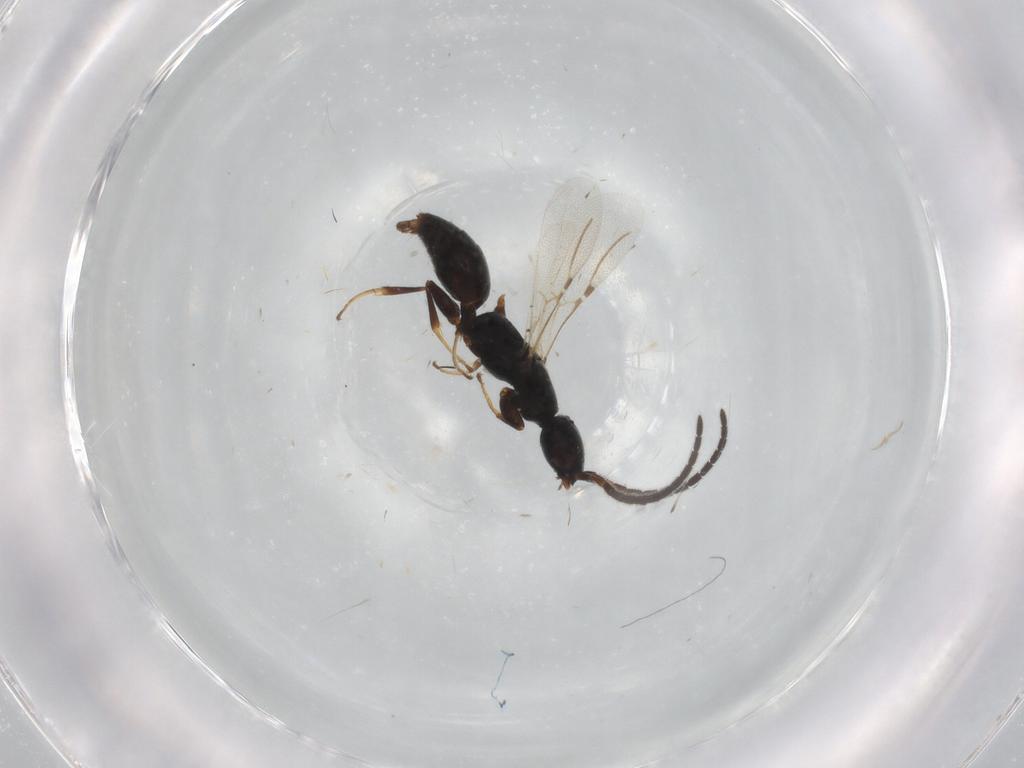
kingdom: Animalia
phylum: Arthropoda
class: Insecta
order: Hymenoptera
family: Bethylidae
